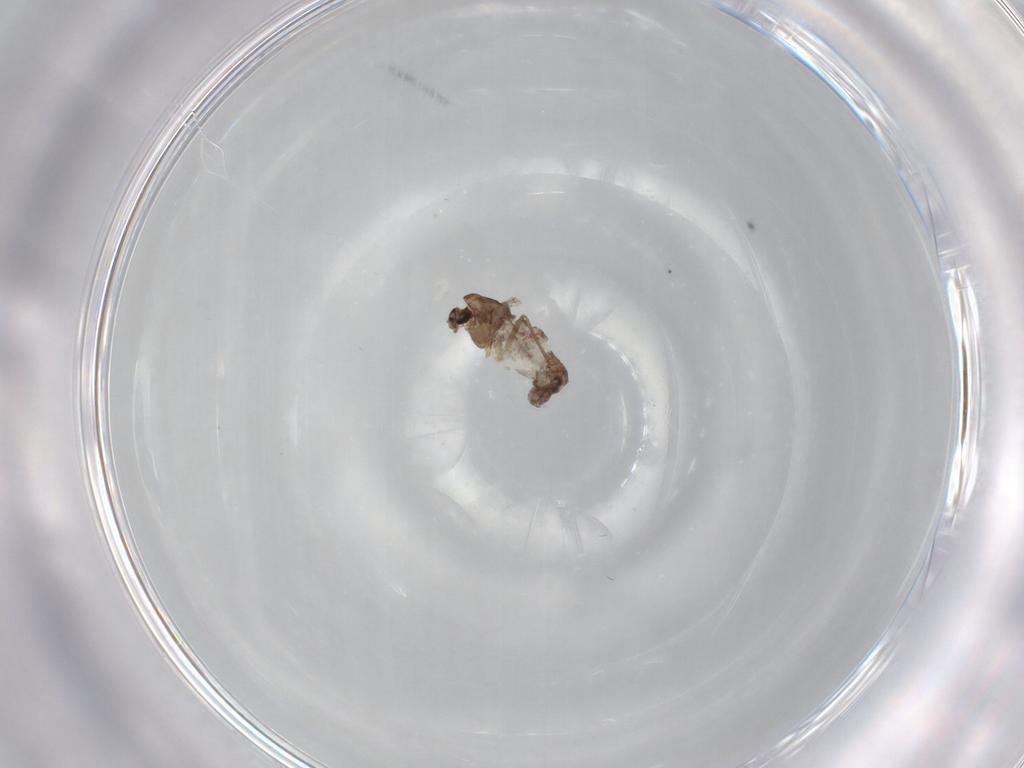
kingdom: Animalia
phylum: Arthropoda
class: Insecta
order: Diptera
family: Chironomidae
